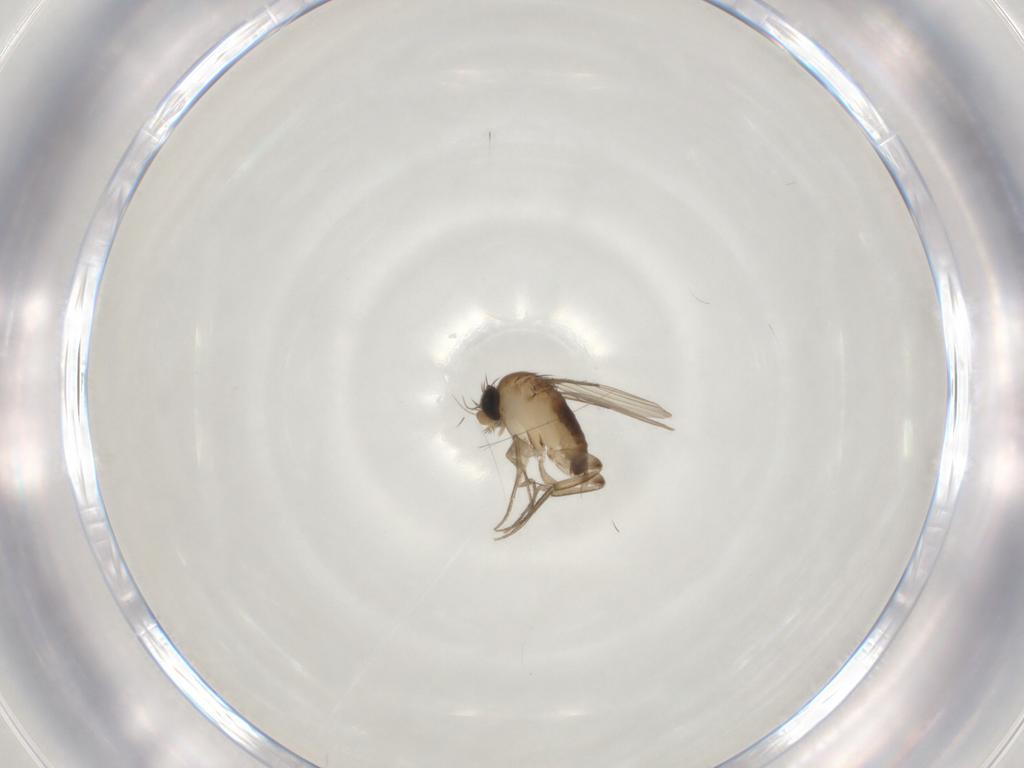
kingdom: Animalia
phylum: Arthropoda
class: Insecta
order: Diptera
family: Phoridae
